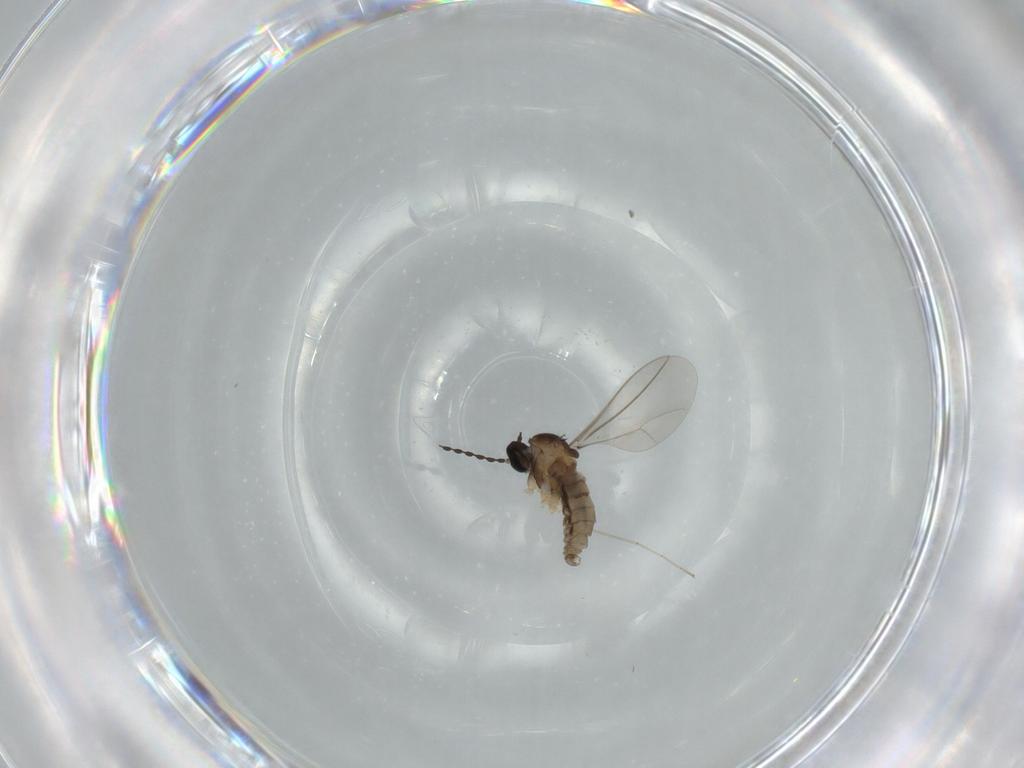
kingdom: Animalia
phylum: Arthropoda
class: Insecta
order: Diptera
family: Cecidomyiidae
